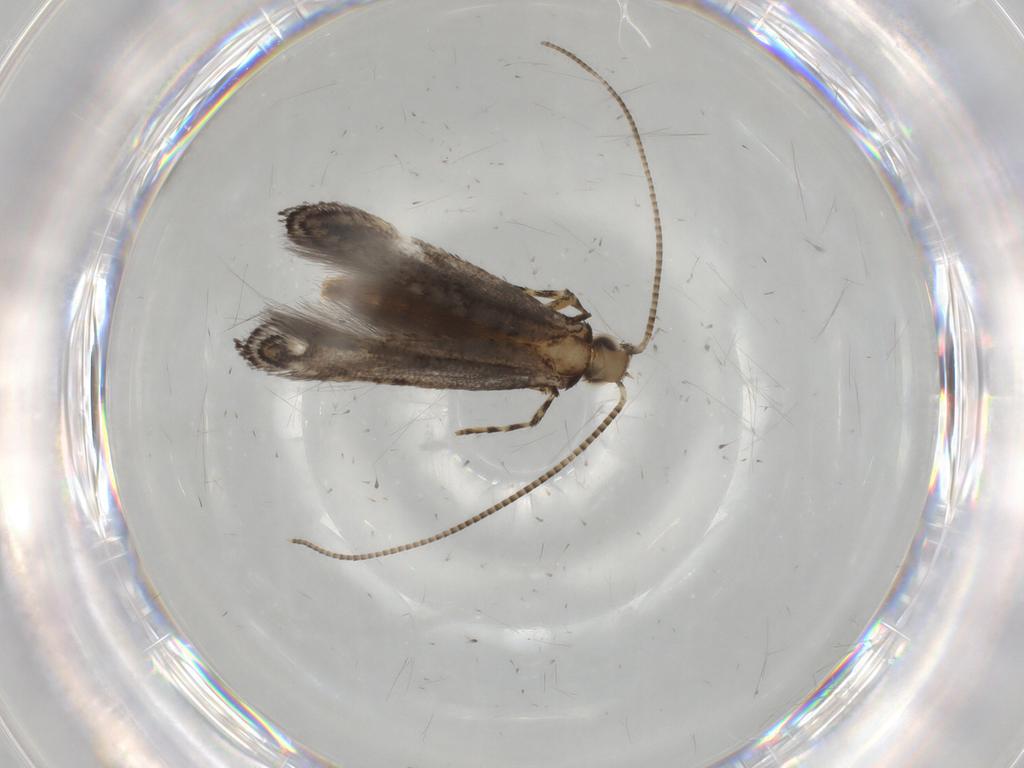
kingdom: Animalia
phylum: Arthropoda
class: Insecta
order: Lepidoptera
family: Gracillariidae
